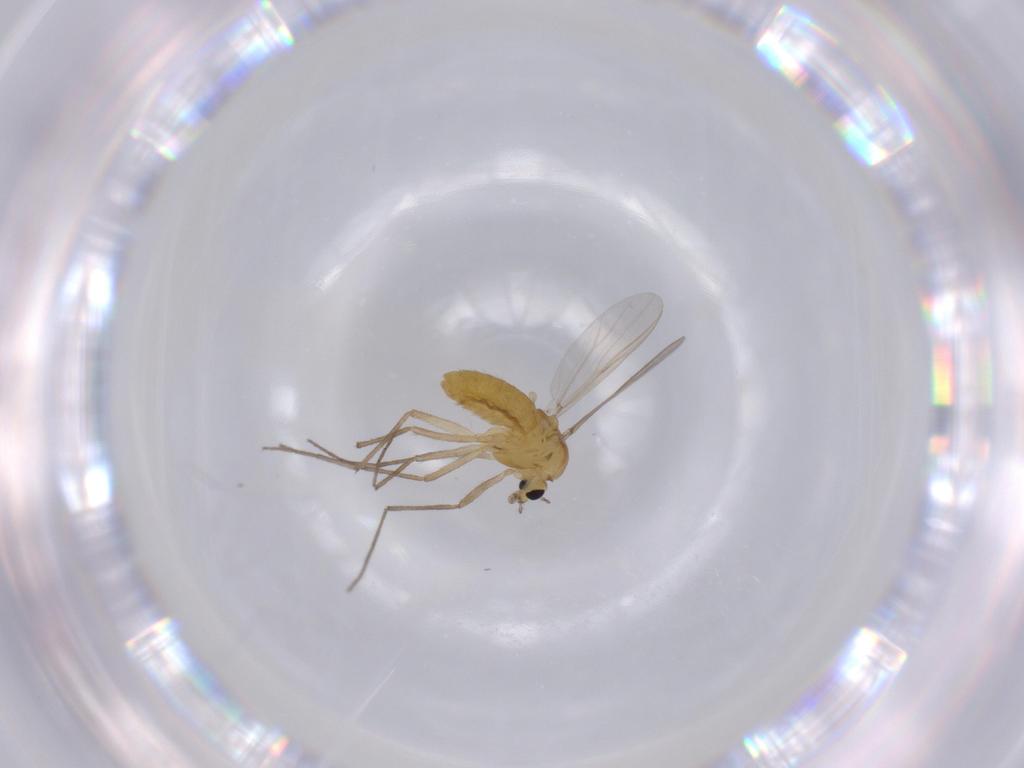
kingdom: Animalia
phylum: Arthropoda
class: Insecta
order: Diptera
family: Chironomidae
